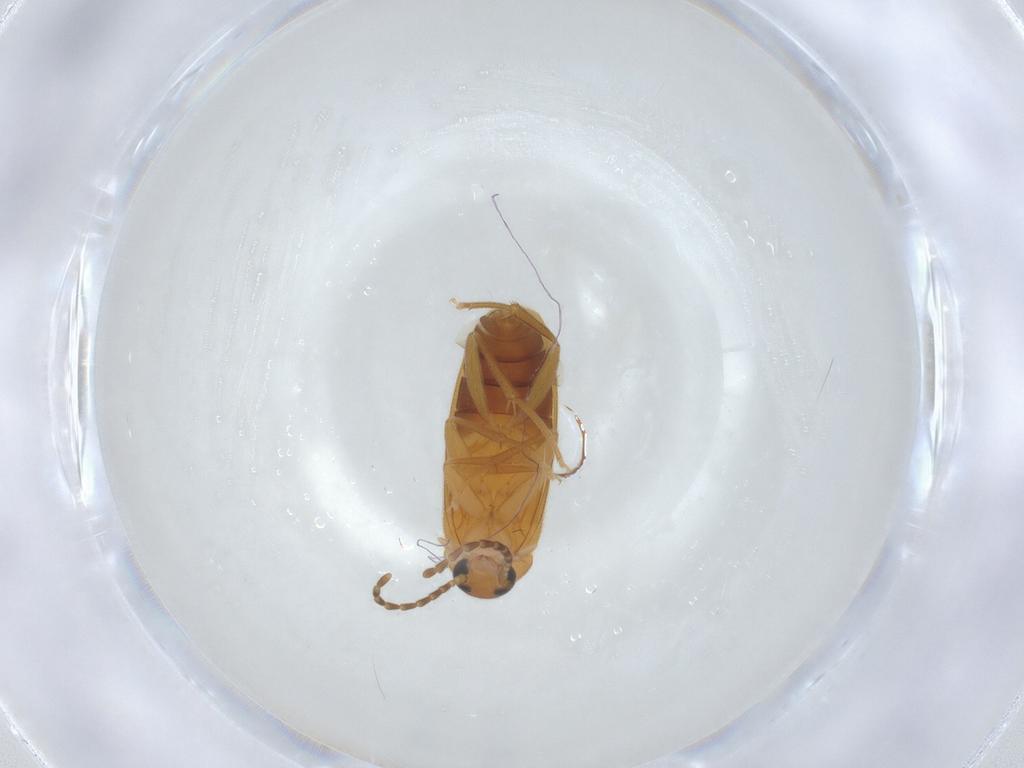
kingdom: Animalia
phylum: Arthropoda
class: Insecta
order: Coleoptera
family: Scraptiidae
